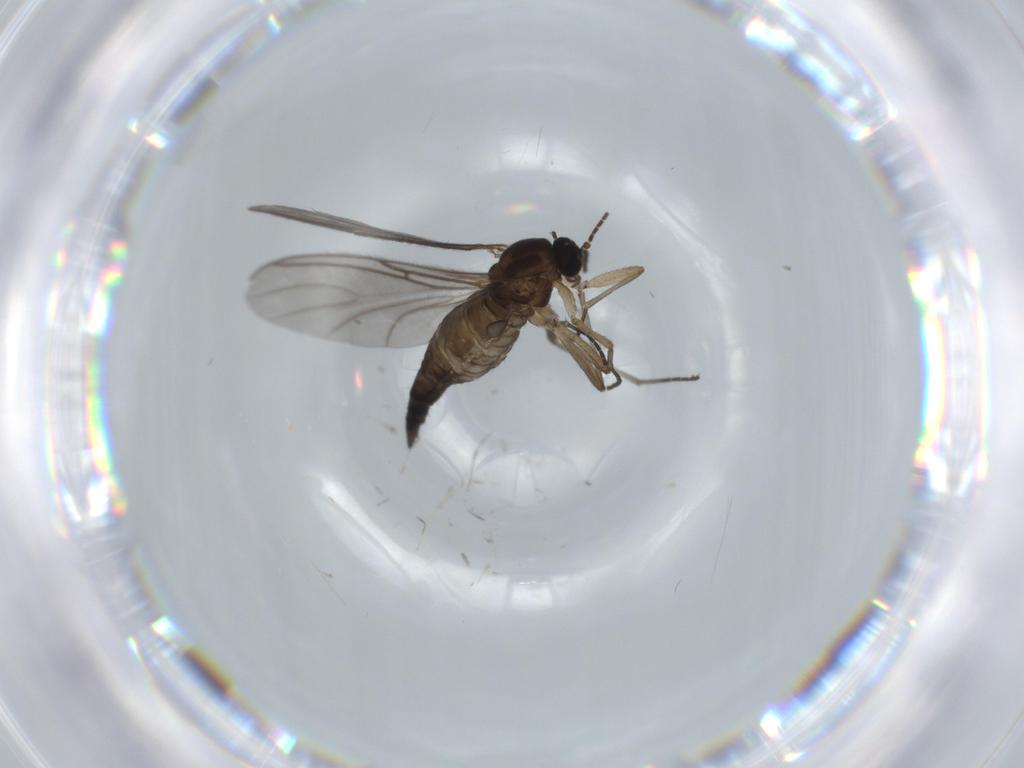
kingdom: Animalia
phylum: Arthropoda
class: Insecta
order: Diptera
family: Sciaridae
